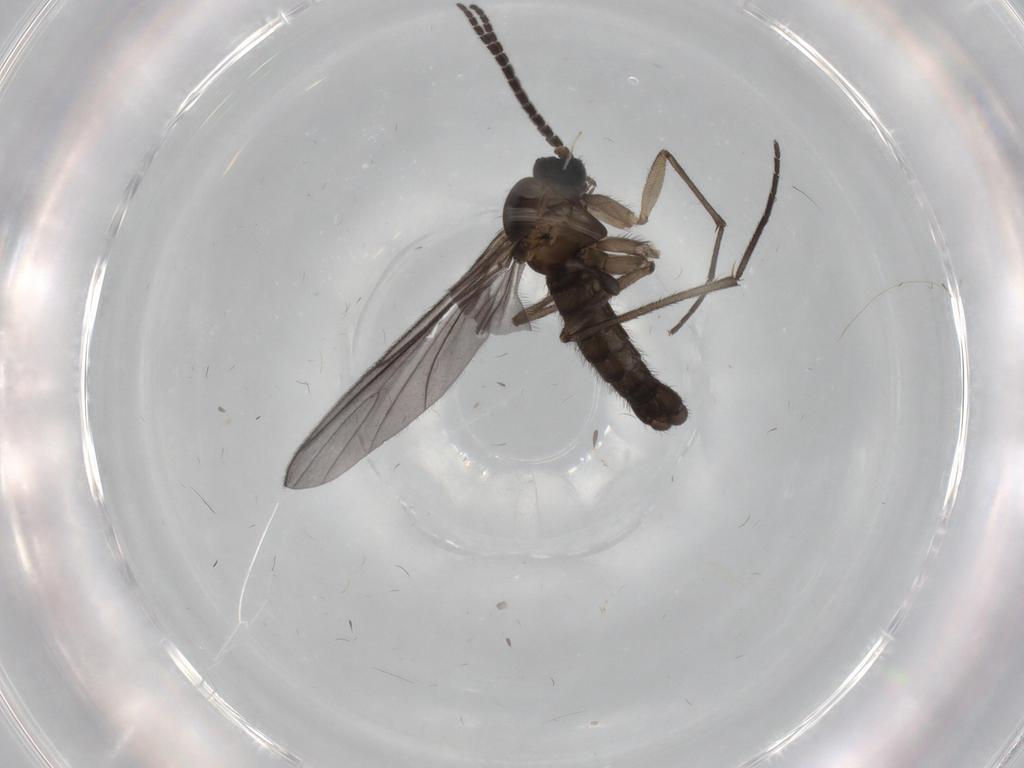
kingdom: Animalia
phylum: Arthropoda
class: Insecta
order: Diptera
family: Sciaridae
